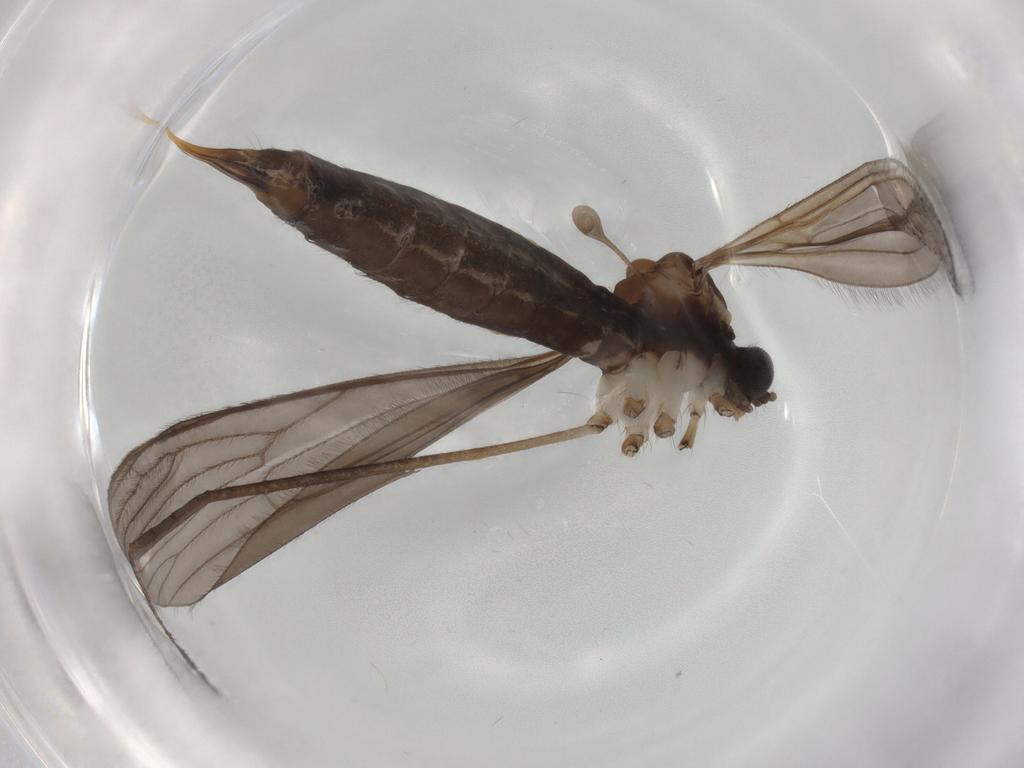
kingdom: Animalia
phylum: Arthropoda
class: Insecta
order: Diptera
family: Limoniidae
